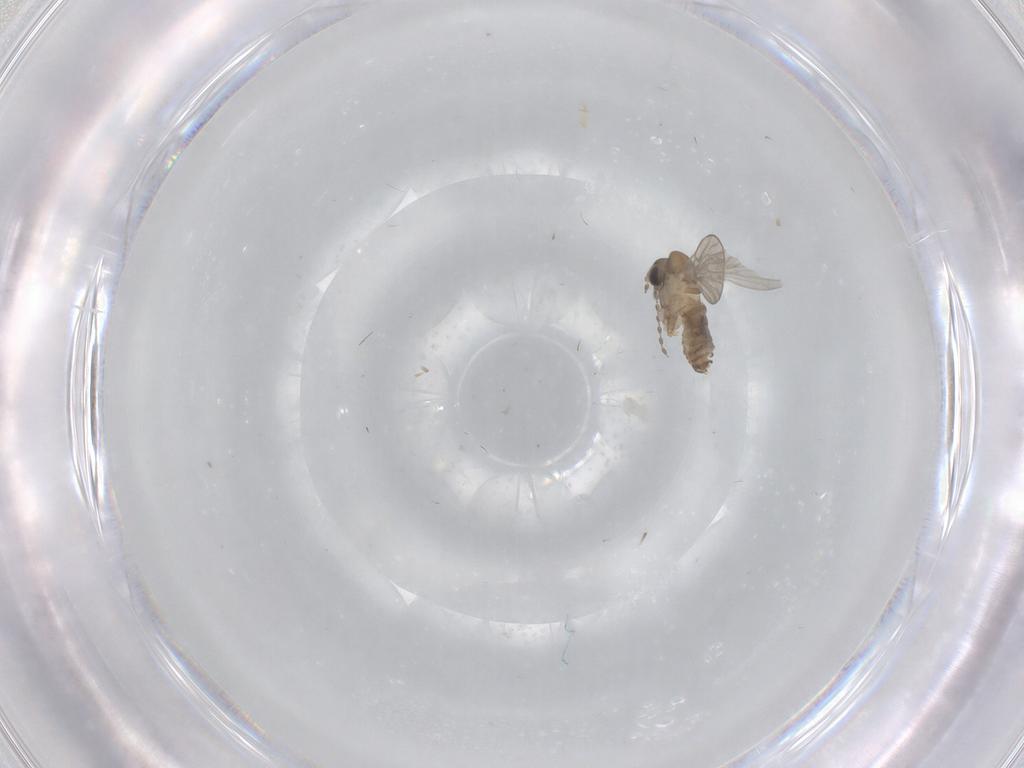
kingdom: Animalia
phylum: Arthropoda
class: Insecta
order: Diptera
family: Psychodidae
